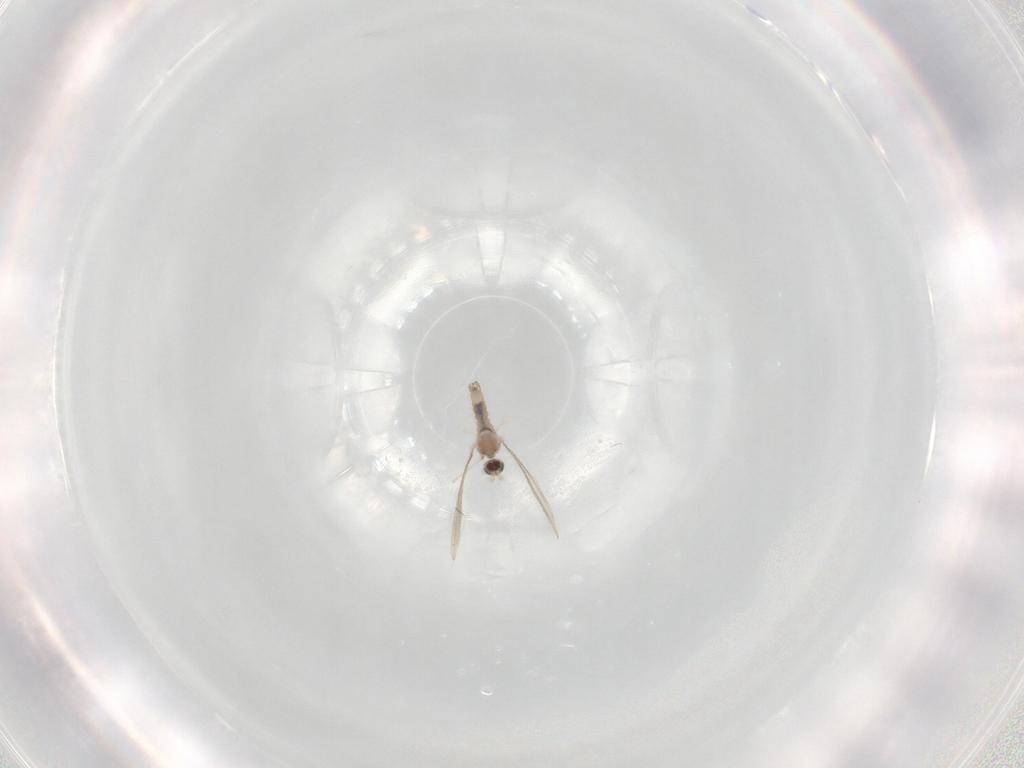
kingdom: Animalia
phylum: Arthropoda
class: Insecta
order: Diptera
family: Cecidomyiidae
